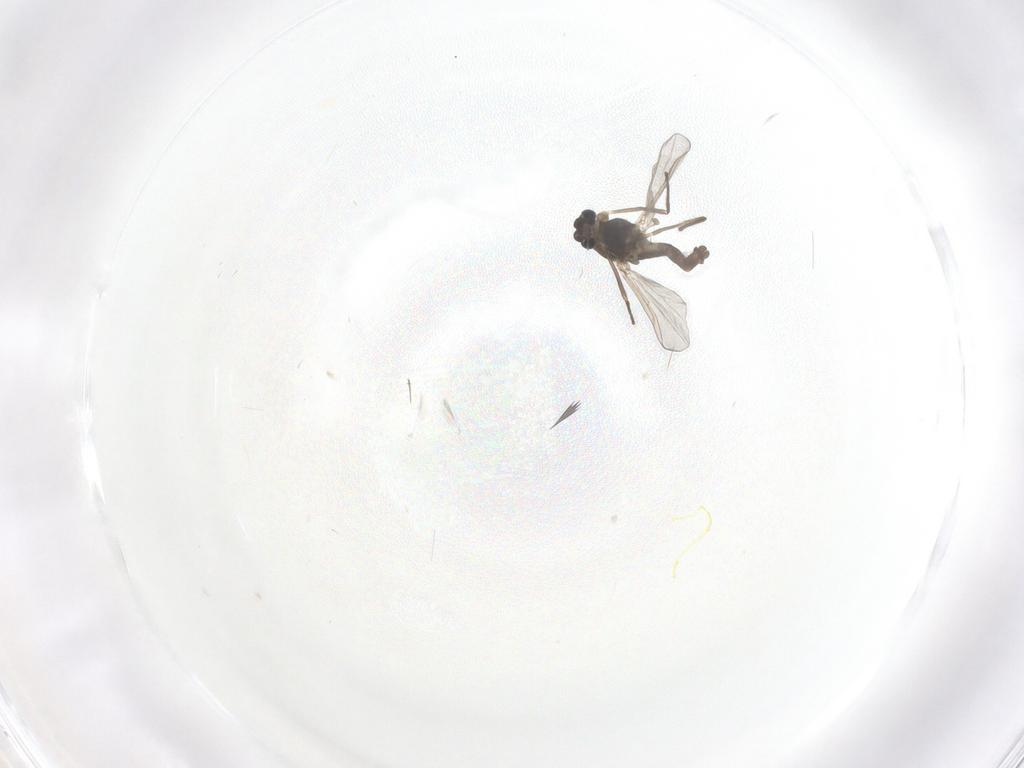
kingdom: Animalia
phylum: Arthropoda
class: Insecta
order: Diptera
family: Chironomidae
